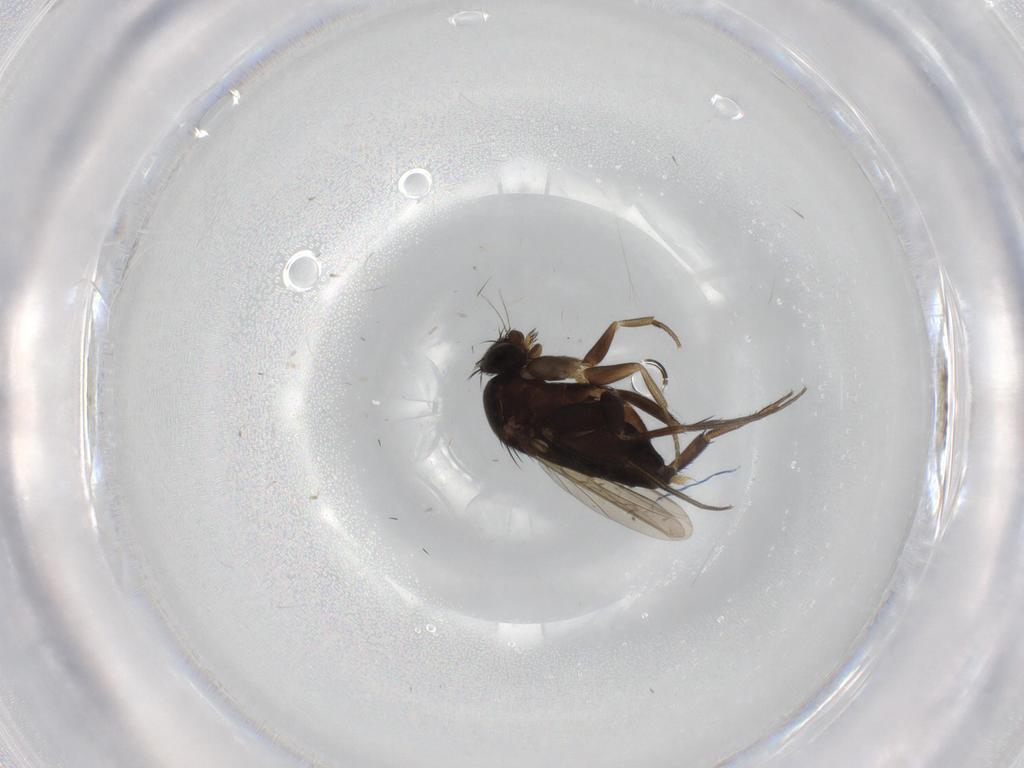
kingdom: Animalia
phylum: Arthropoda
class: Insecta
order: Diptera
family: Phoridae
